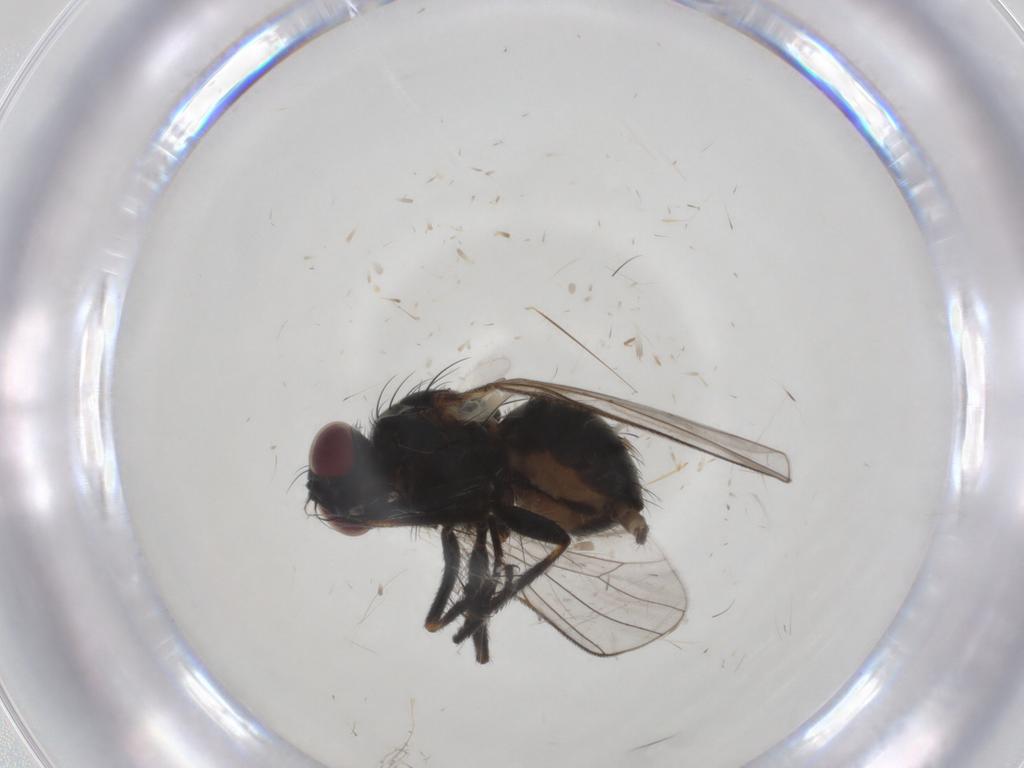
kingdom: Animalia
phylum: Arthropoda
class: Insecta
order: Diptera
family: Muscidae
